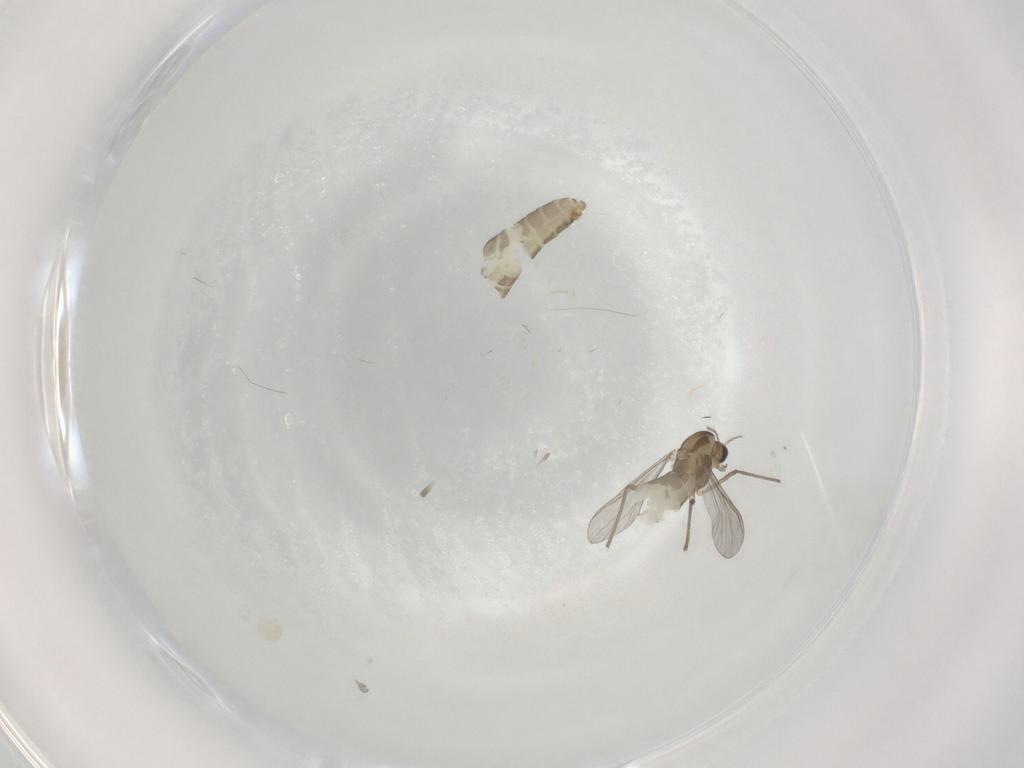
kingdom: Animalia
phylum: Arthropoda
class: Insecta
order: Diptera
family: Sciaridae
